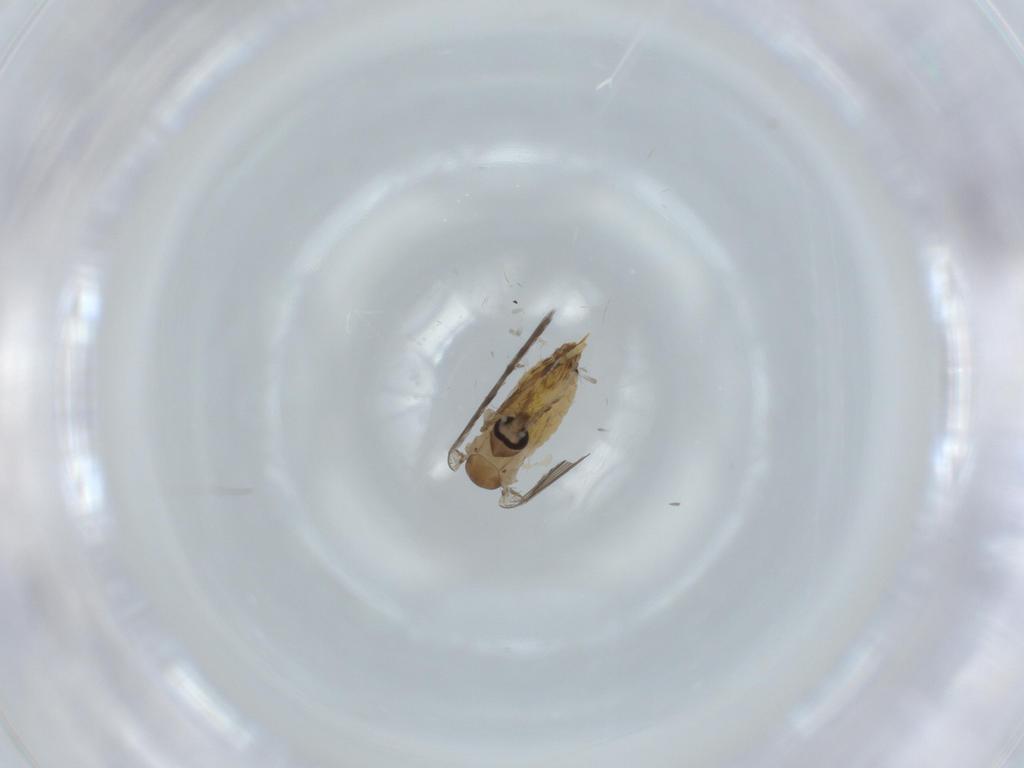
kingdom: Animalia
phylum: Arthropoda
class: Insecta
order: Diptera
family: Psychodidae
